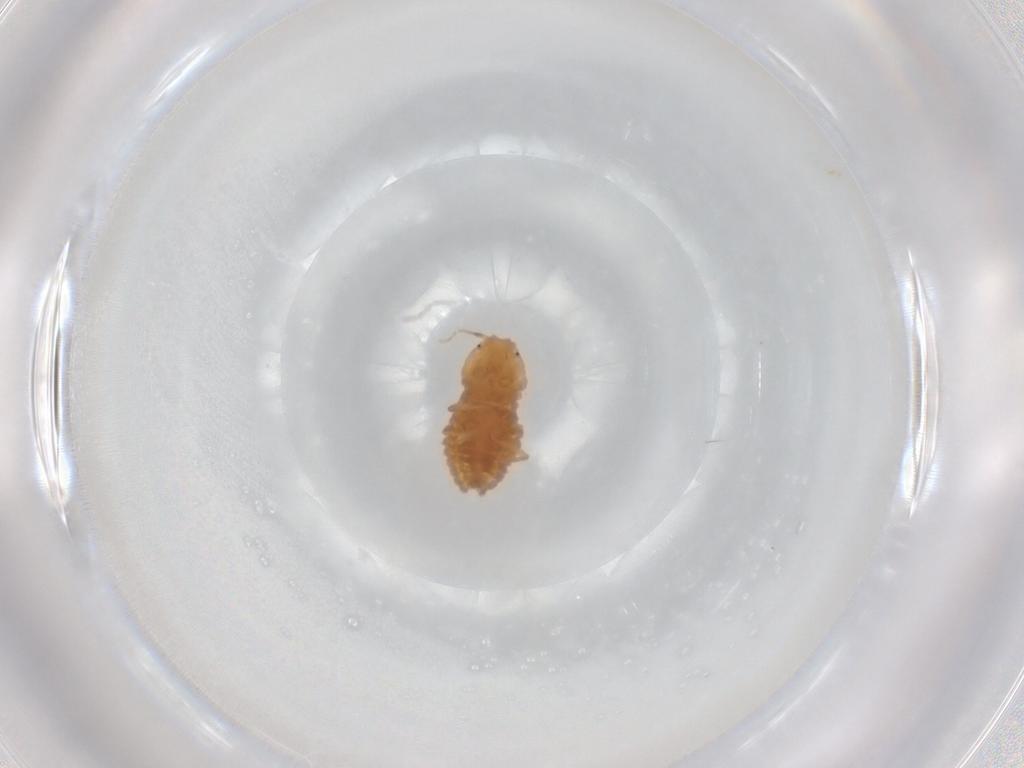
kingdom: Animalia
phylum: Arthropoda
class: Insecta
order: Hemiptera
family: Pseudococcidae
